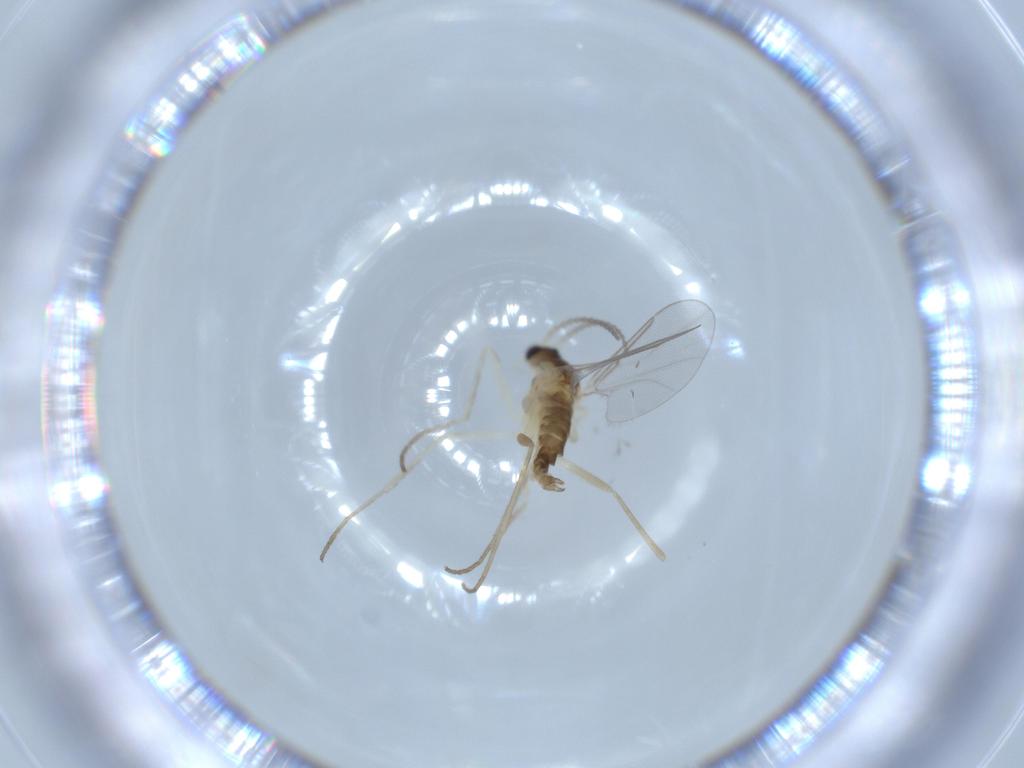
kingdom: Animalia
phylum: Arthropoda
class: Insecta
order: Diptera
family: Cecidomyiidae
